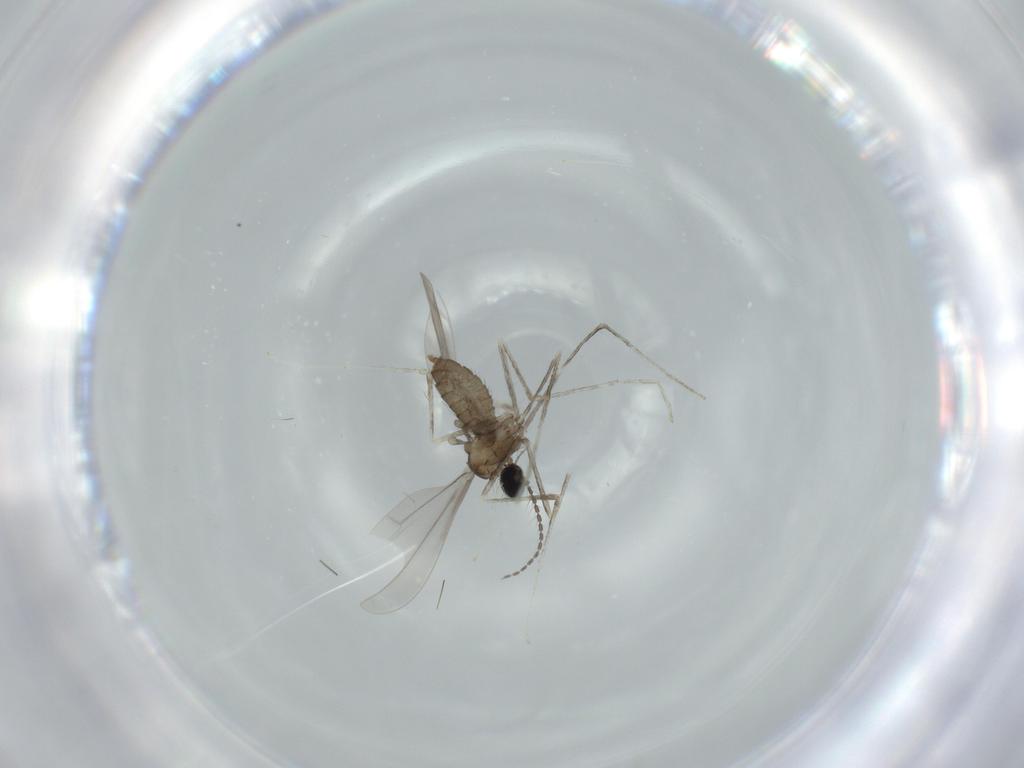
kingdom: Animalia
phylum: Arthropoda
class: Insecta
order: Diptera
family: Cecidomyiidae
